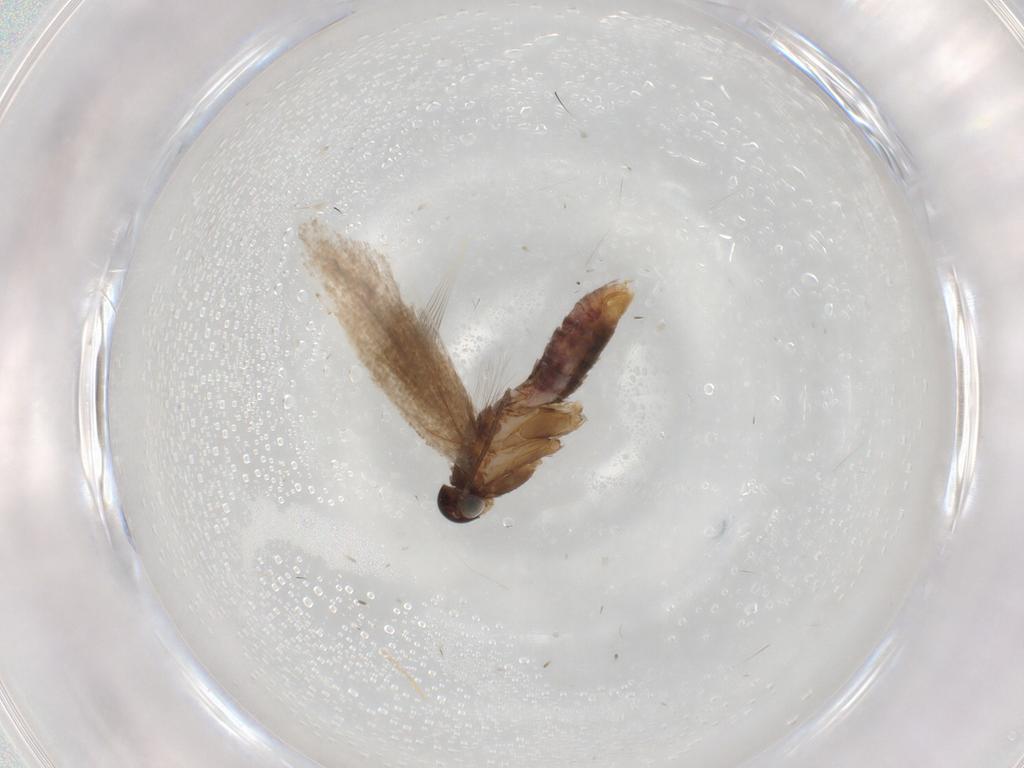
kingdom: Animalia
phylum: Arthropoda
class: Insecta
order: Lepidoptera
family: Gelechiidae
